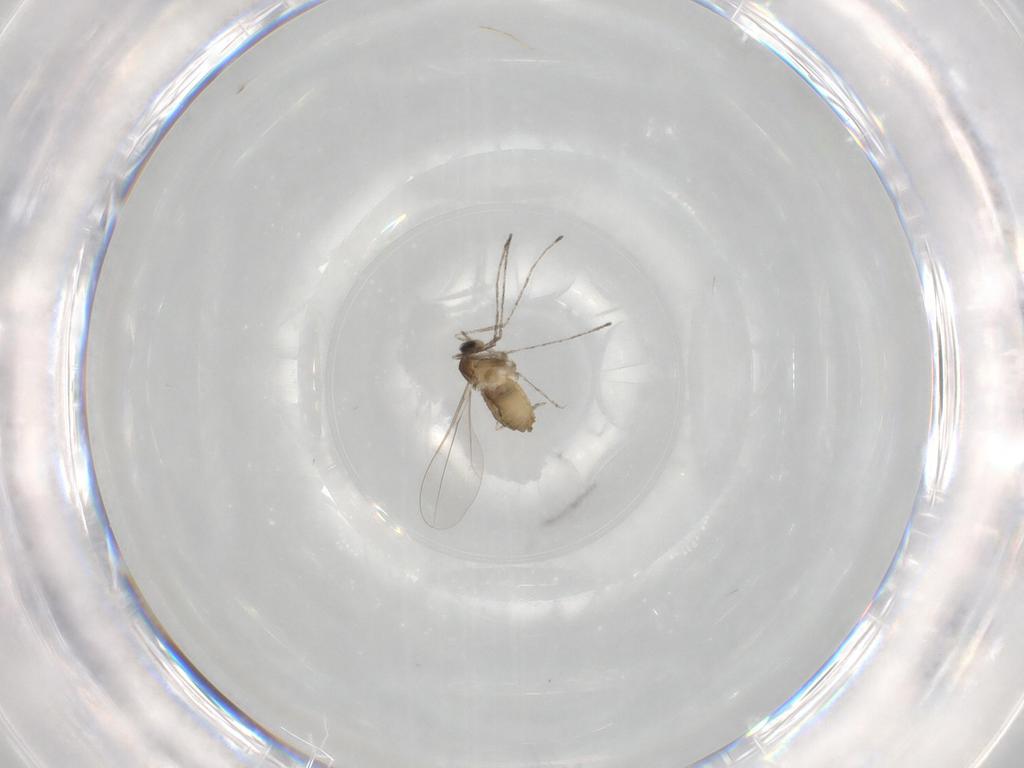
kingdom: Animalia
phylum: Arthropoda
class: Insecta
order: Diptera
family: Cecidomyiidae
